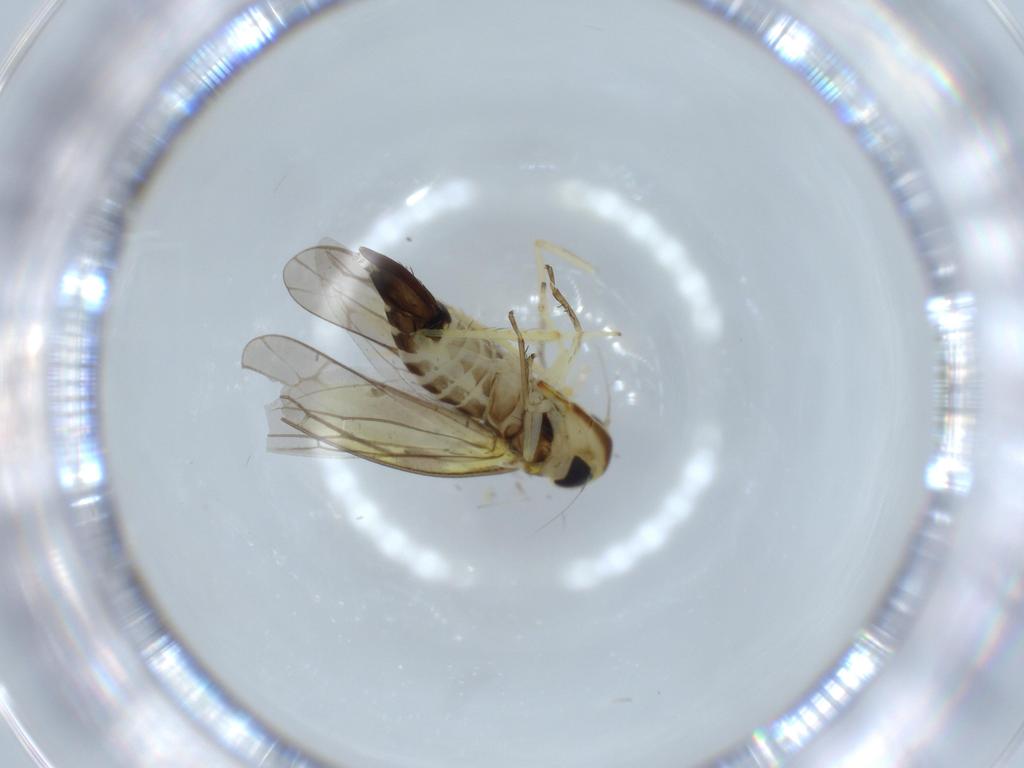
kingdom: Animalia
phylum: Arthropoda
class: Insecta
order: Hemiptera
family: Cicadellidae
